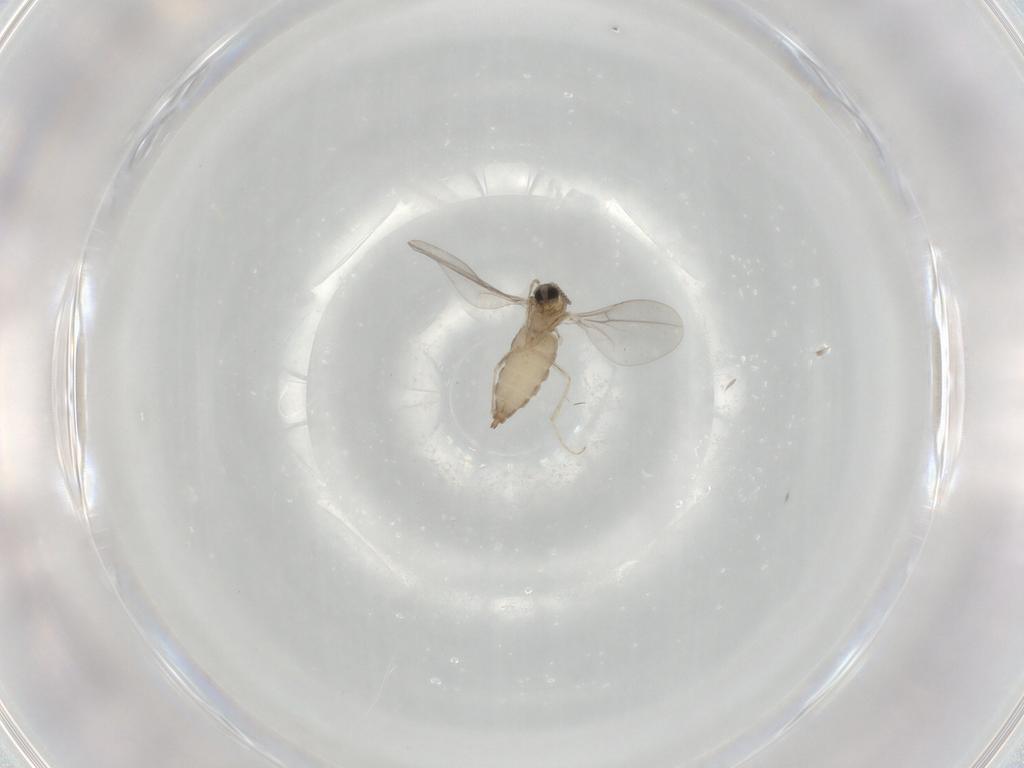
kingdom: Animalia
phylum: Arthropoda
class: Insecta
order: Diptera
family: Cecidomyiidae
